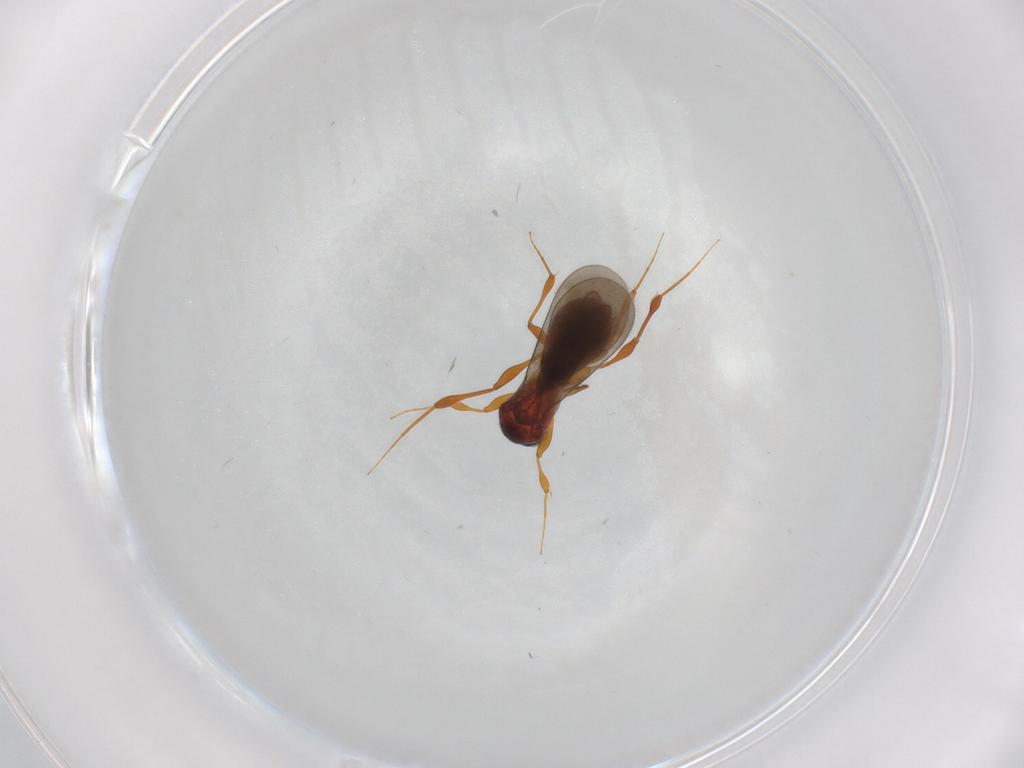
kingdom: Animalia
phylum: Arthropoda
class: Insecta
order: Hymenoptera
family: Platygastridae
